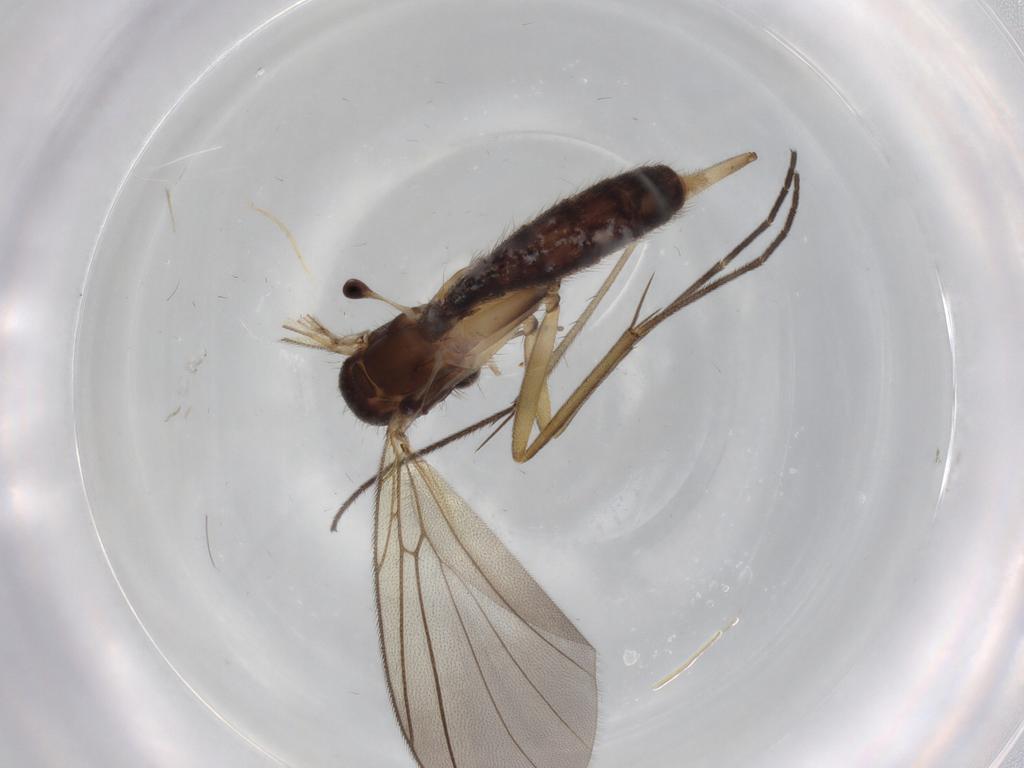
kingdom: Animalia
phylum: Arthropoda
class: Insecta
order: Diptera
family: Mycetophilidae
